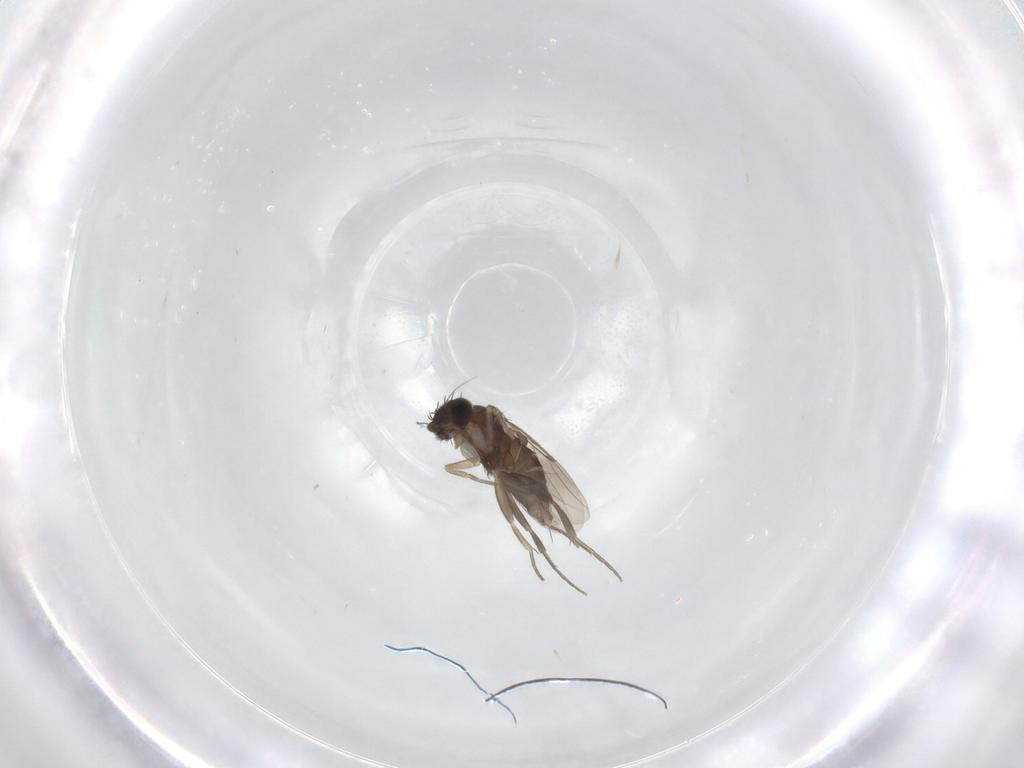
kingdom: Animalia
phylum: Arthropoda
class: Insecta
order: Diptera
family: Phoridae
